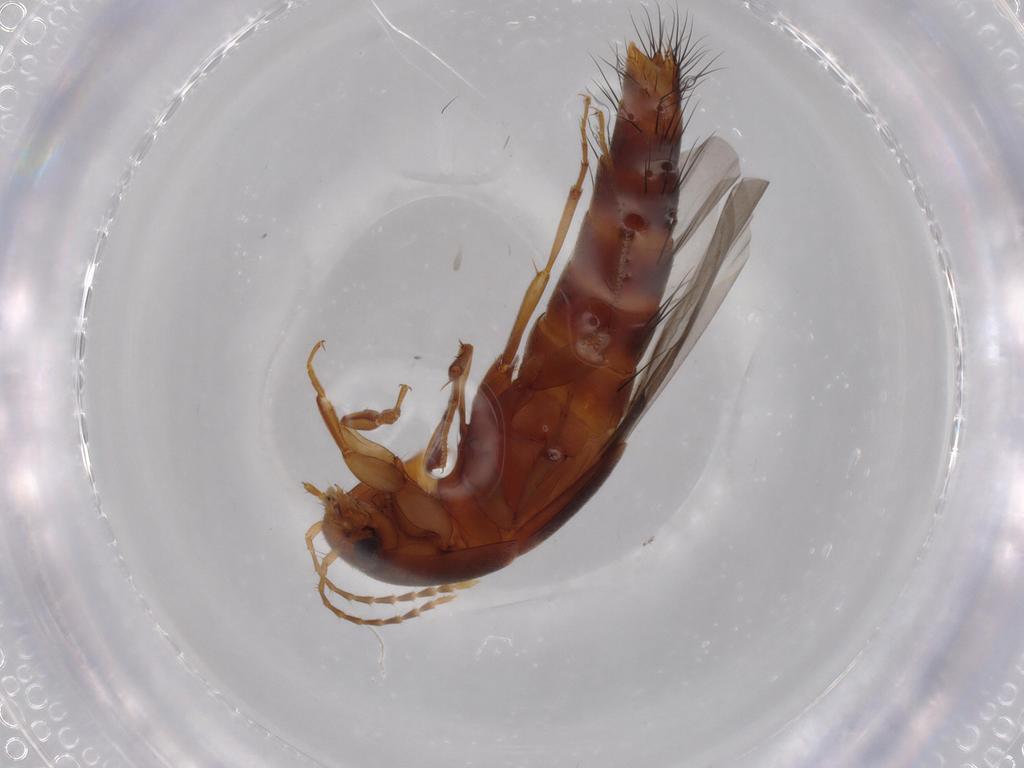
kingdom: Animalia
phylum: Arthropoda
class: Insecta
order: Coleoptera
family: Staphylinidae
